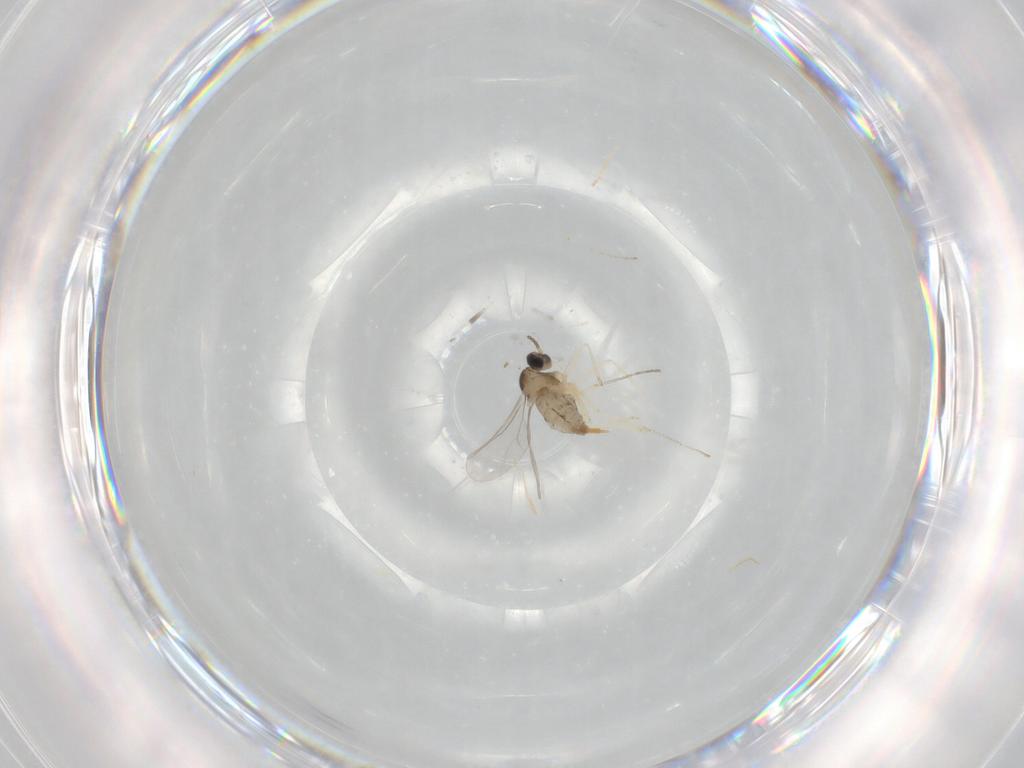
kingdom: Animalia
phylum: Arthropoda
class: Insecta
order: Diptera
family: Cecidomyiidae
